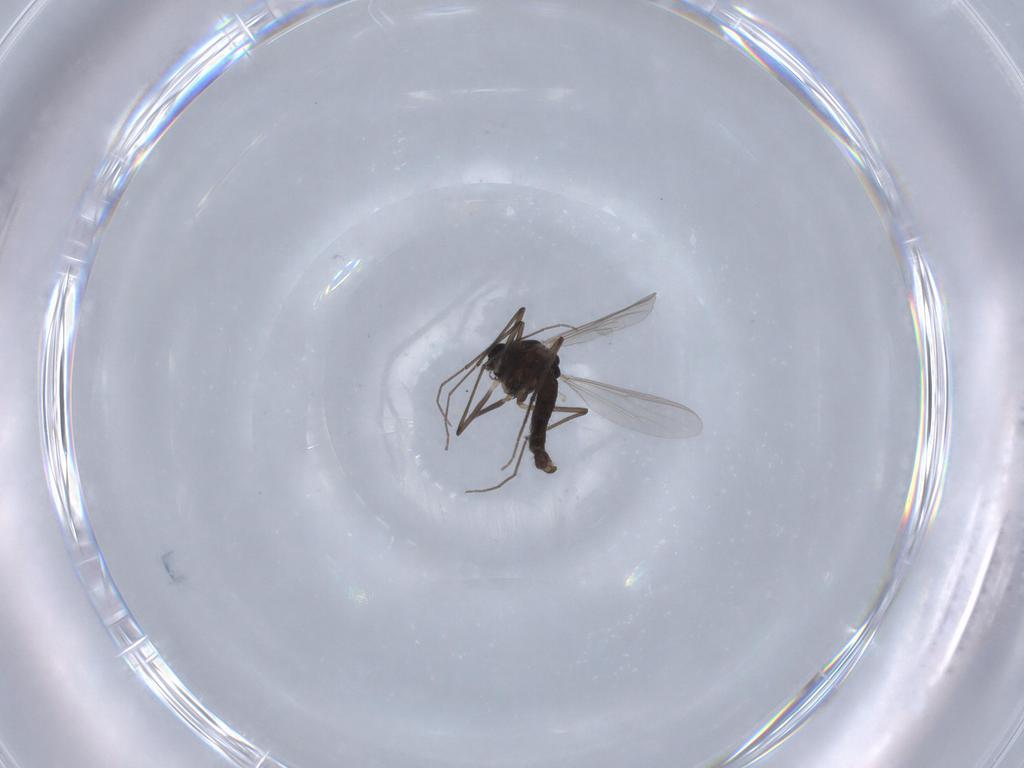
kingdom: Animalia
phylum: Arthropoda
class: Insecta
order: Diptera
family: Chironomidae
